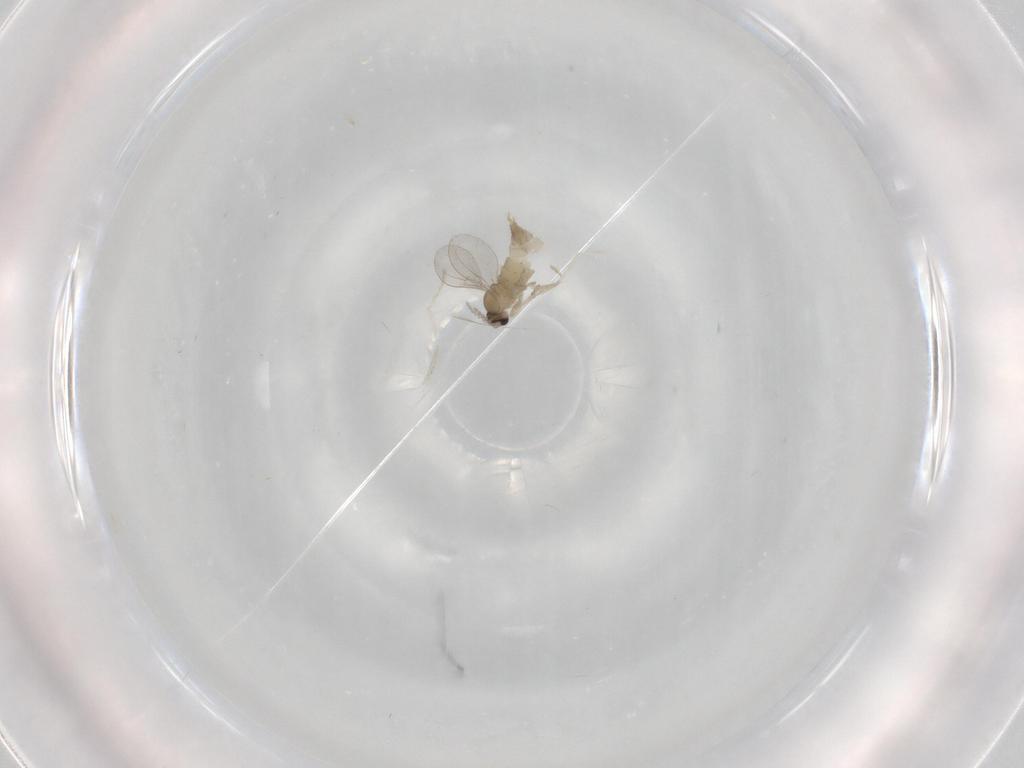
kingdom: Animalia
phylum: Arthropoda
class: Insecta
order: Diptera
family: Cecidomyiidae
